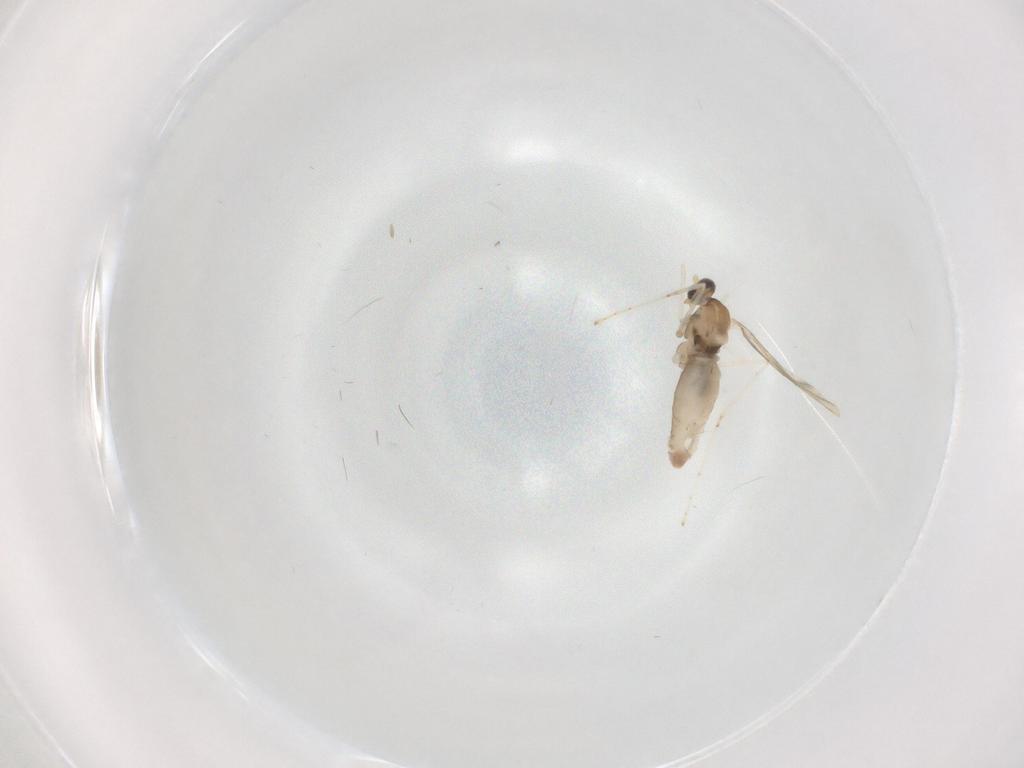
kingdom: Animalia
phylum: Arthropoda
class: Insecta
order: Diptera
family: Cecidomyiidae
